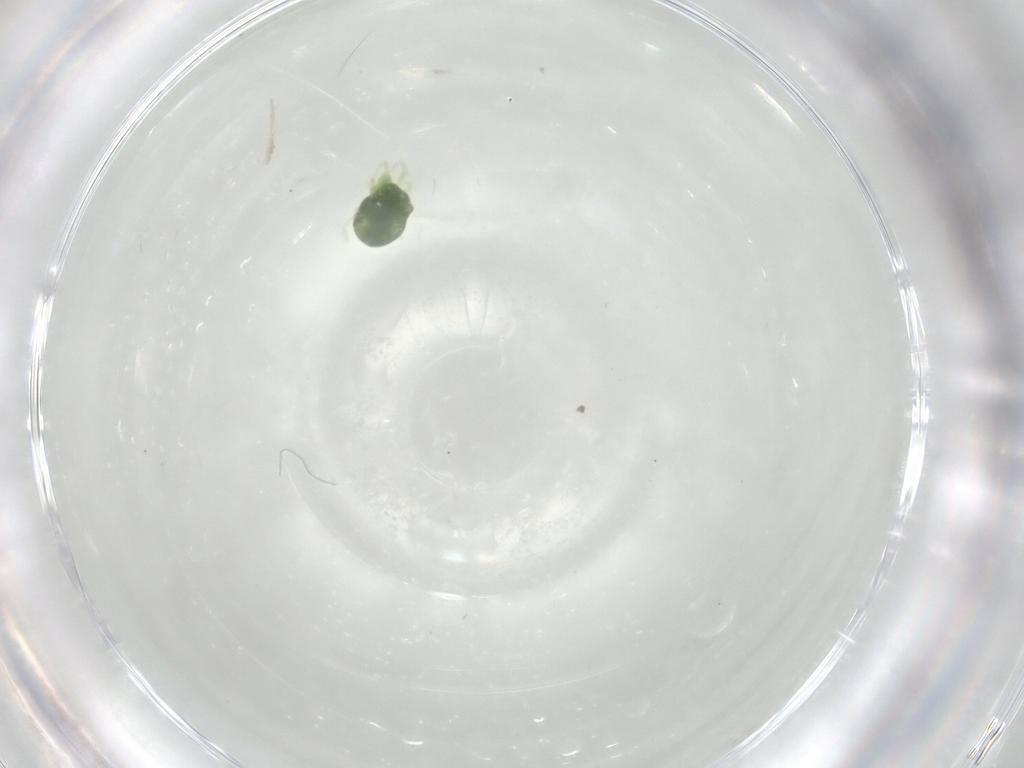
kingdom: Animalia
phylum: Arthropoda
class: Arachnida
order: Trombidiformes
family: Penthaleidae
